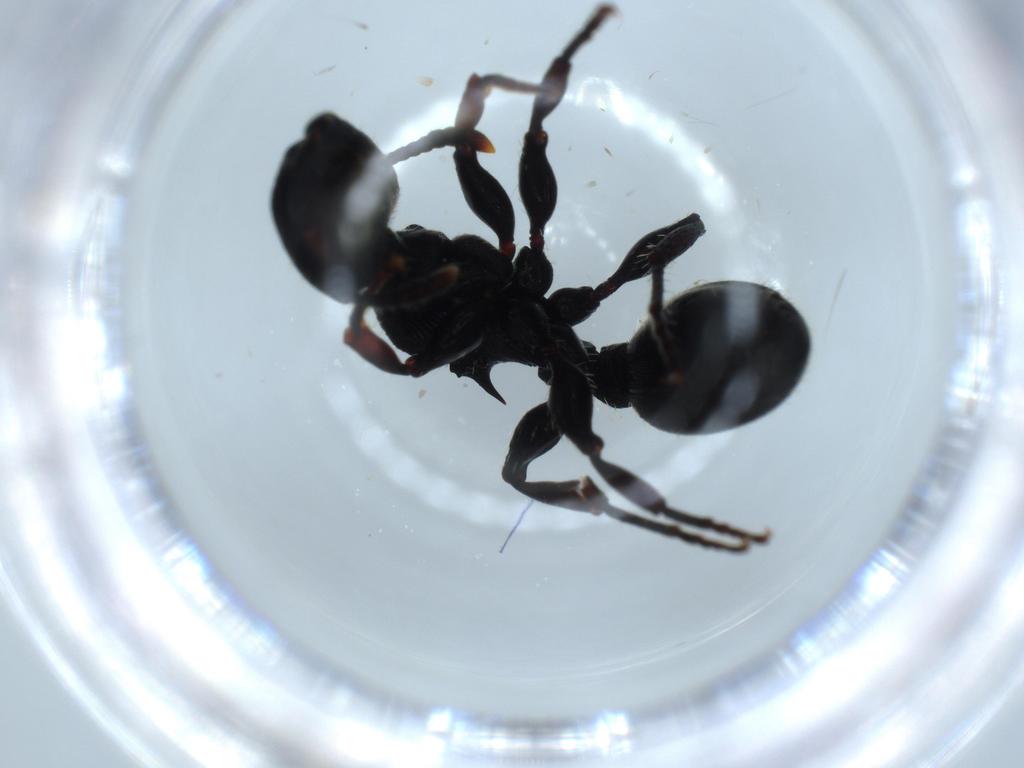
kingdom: Animalia
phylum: Arthropoda
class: Insecta
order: Hymenoptera
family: Formicidae
